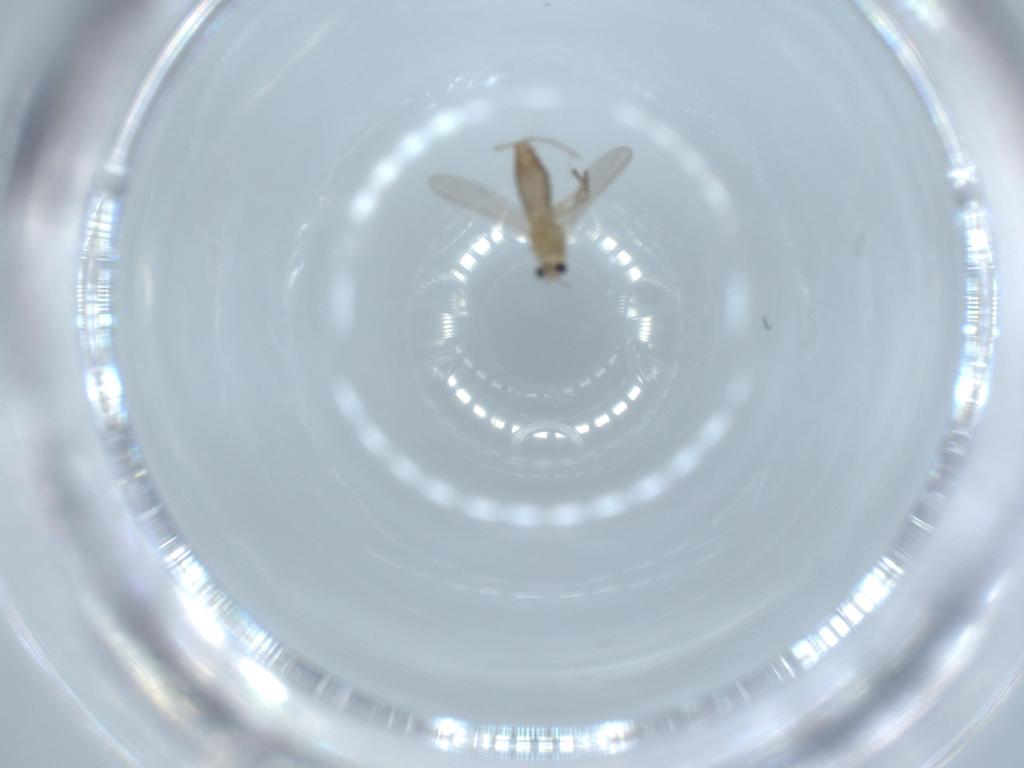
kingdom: Animalia
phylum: Arthropoda
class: Insecta
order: Diptera
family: Chironomidae
